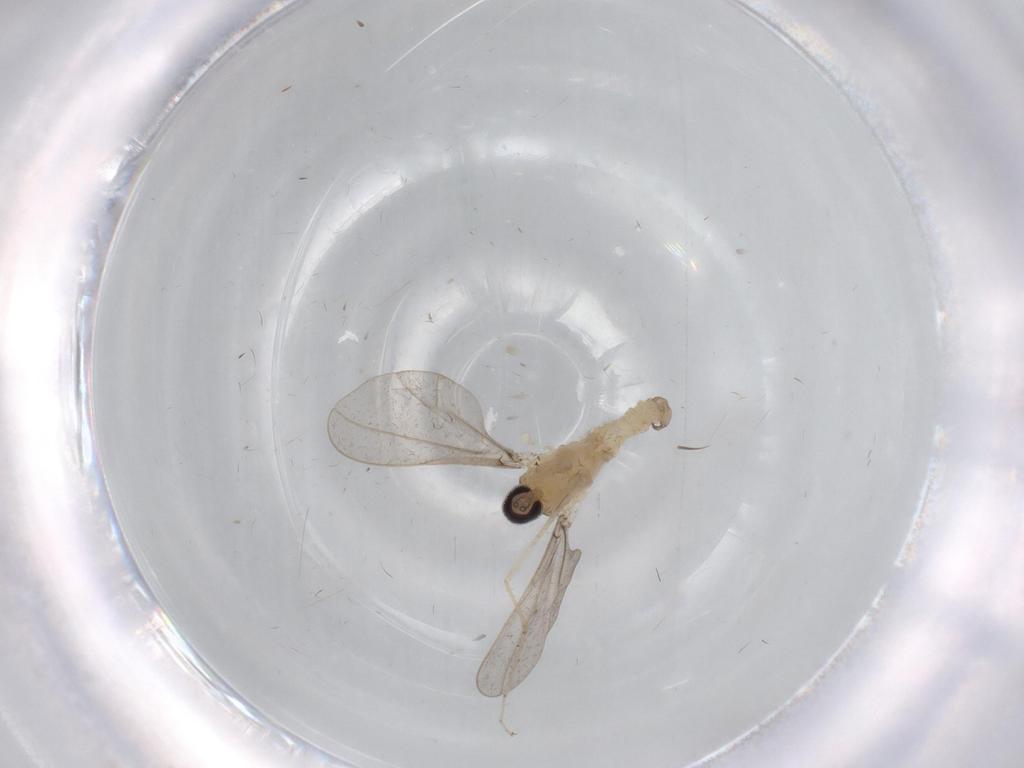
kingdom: Animalia
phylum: Arthropoda
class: Insecta
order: Diptera
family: Cecidomyiidae
